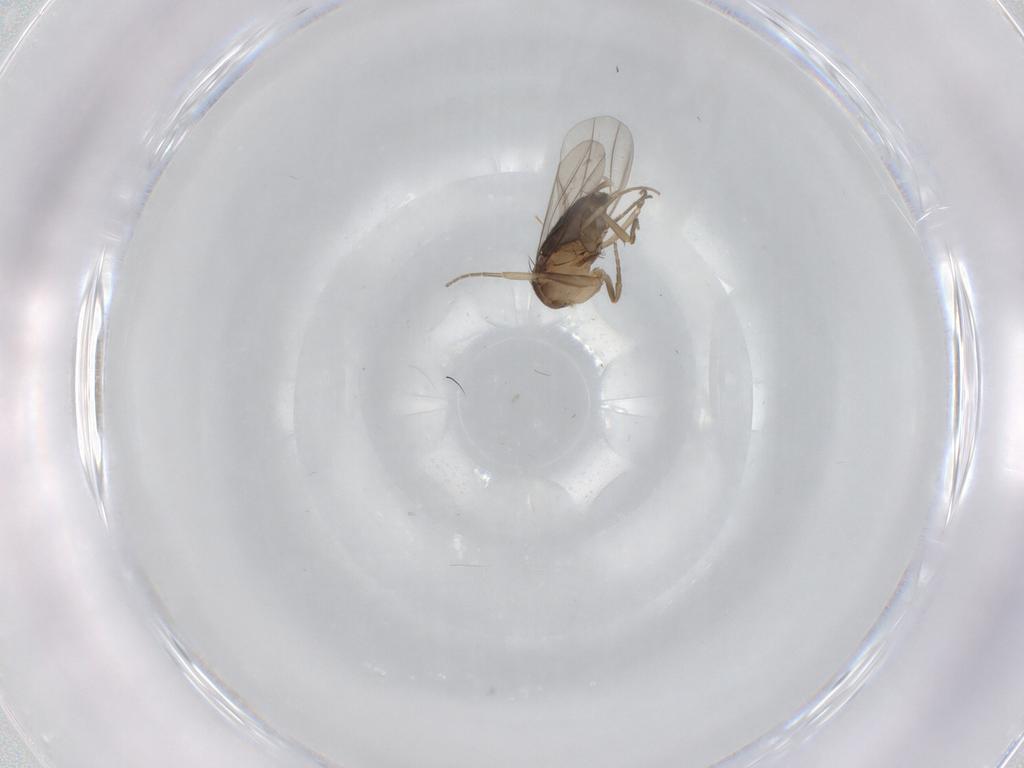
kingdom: Animalia
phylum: Arthropoda
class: Insecta
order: Diptera
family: Phoridae
